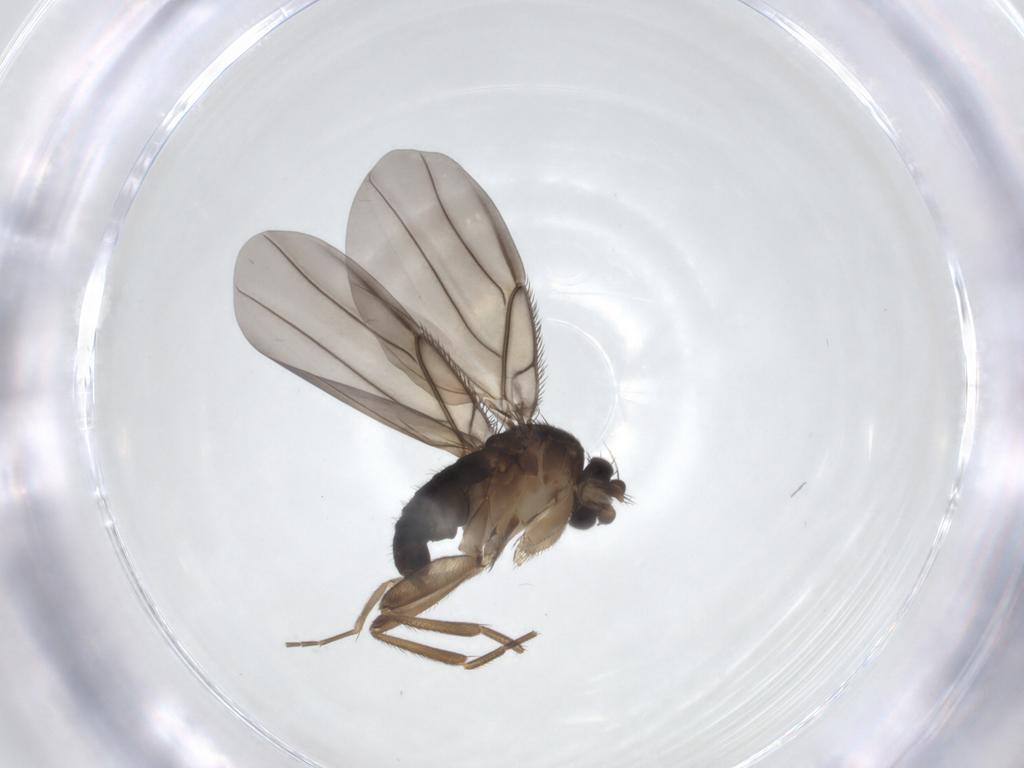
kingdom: Animalia
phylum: Arthropoda
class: Insecta
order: Diptera
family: Phoridae
